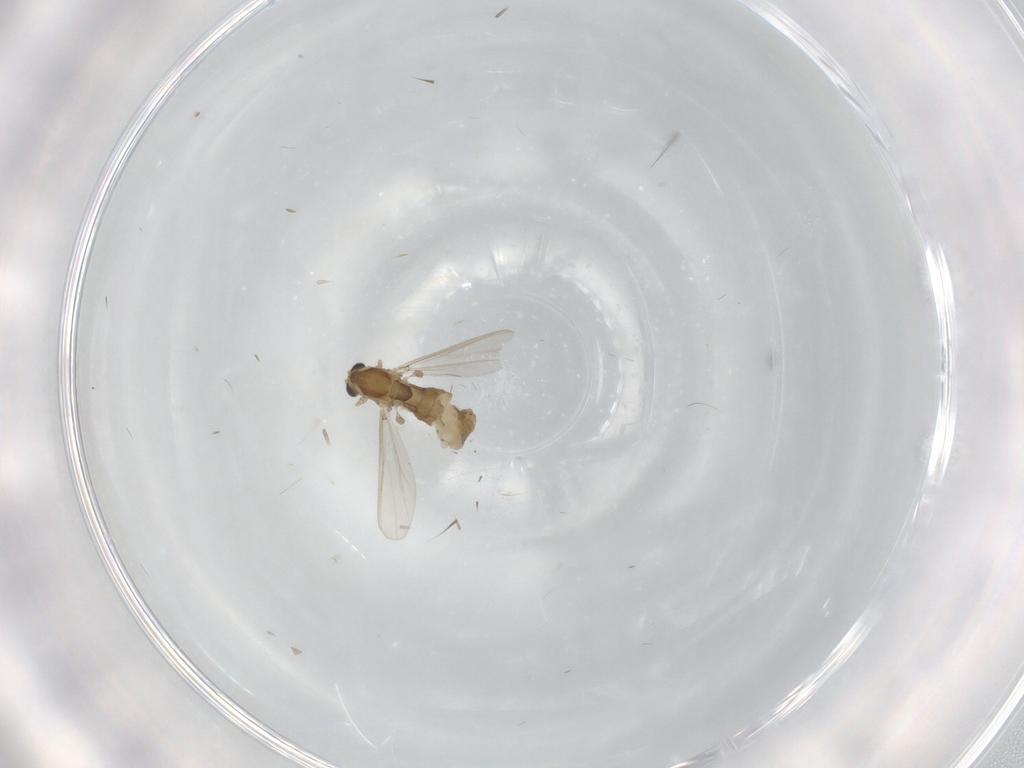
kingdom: Animalia
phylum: Arthropoda
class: Insecta
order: Diptera
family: Chironomidae
